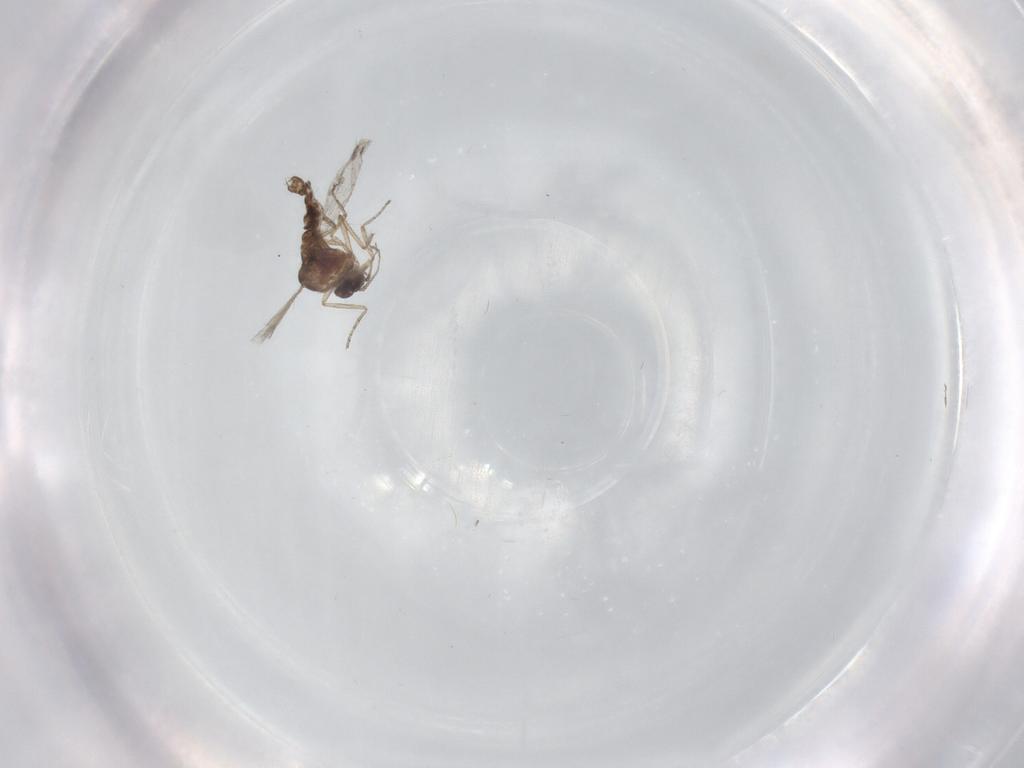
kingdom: Animalia
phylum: Arthropoda
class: Insecta
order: Diptera
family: Ceratopogonidae
